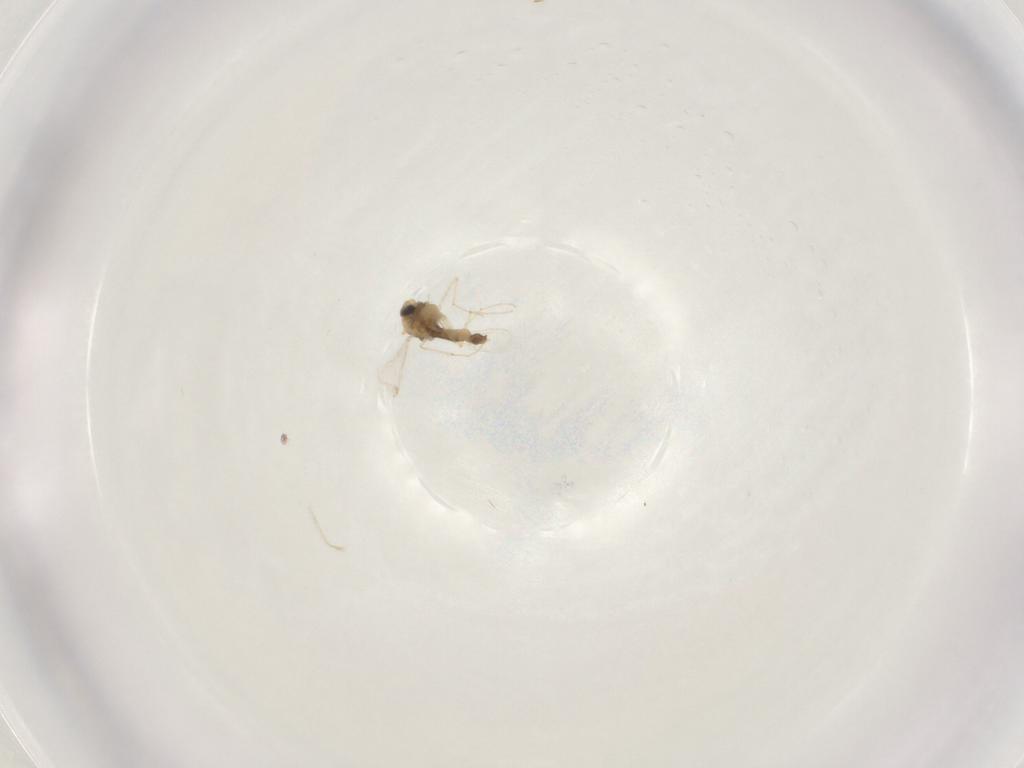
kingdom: Animalia
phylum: Arthropoda
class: Insecta
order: Diptera
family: Chironomidae
